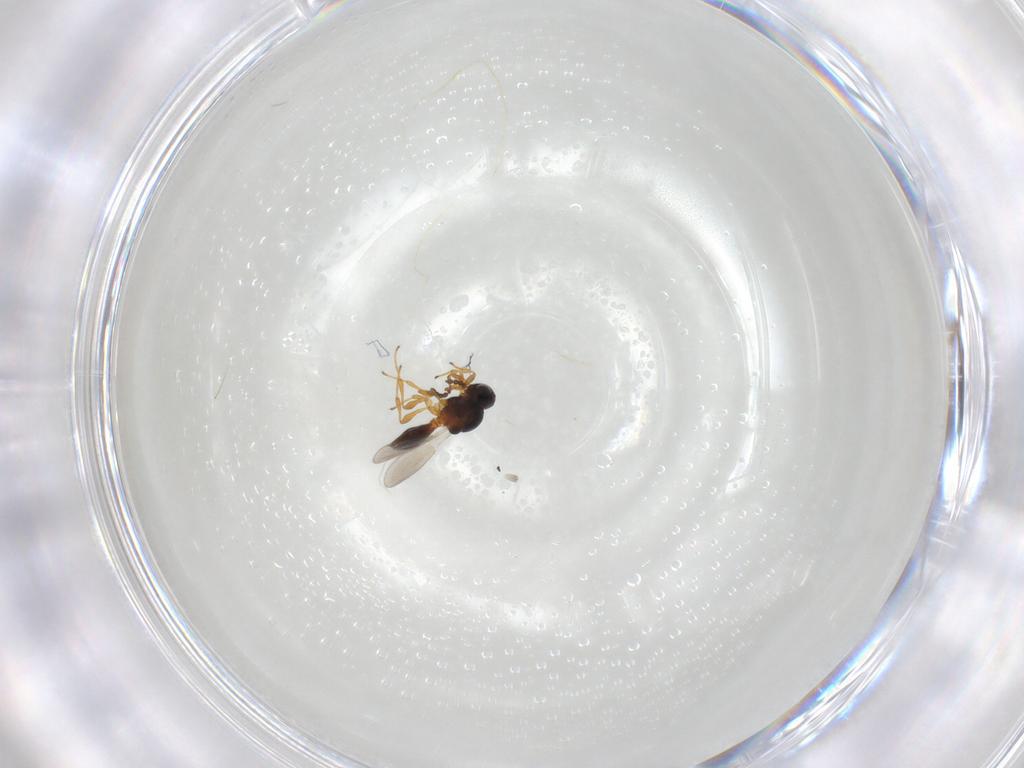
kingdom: Animalia
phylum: Arthropoda
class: Insecta
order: Hymenoptera
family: Platygastridae
